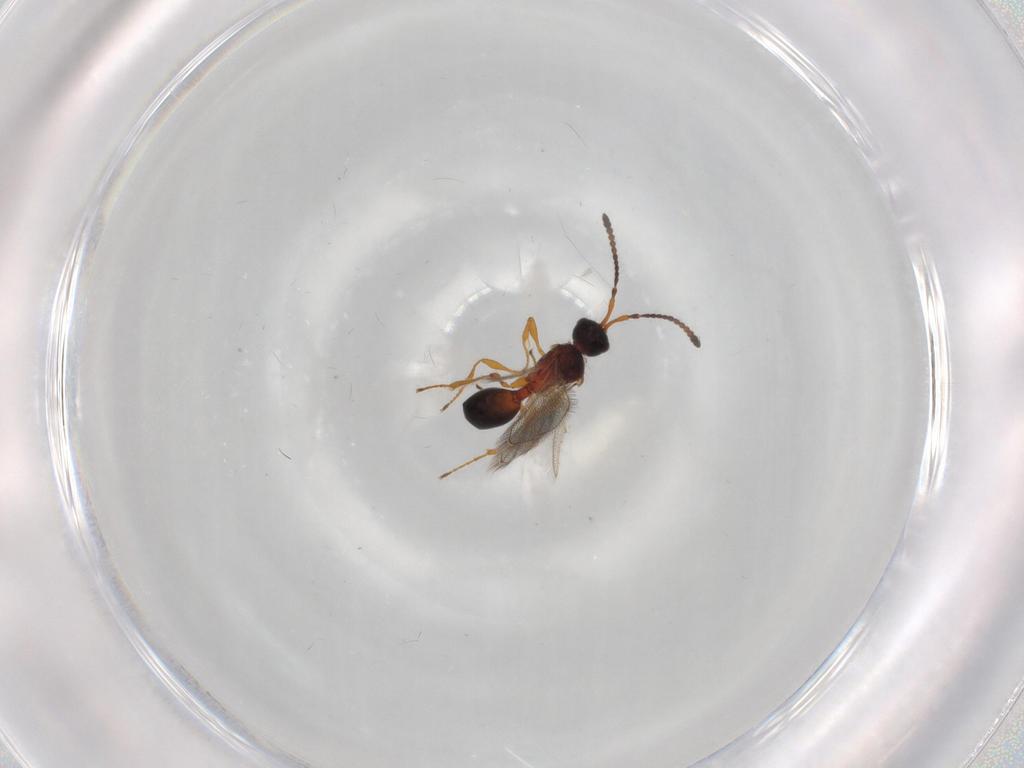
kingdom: Animalia
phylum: Arthropoda
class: Insecta
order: Hymenoptera
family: Diapriidae
